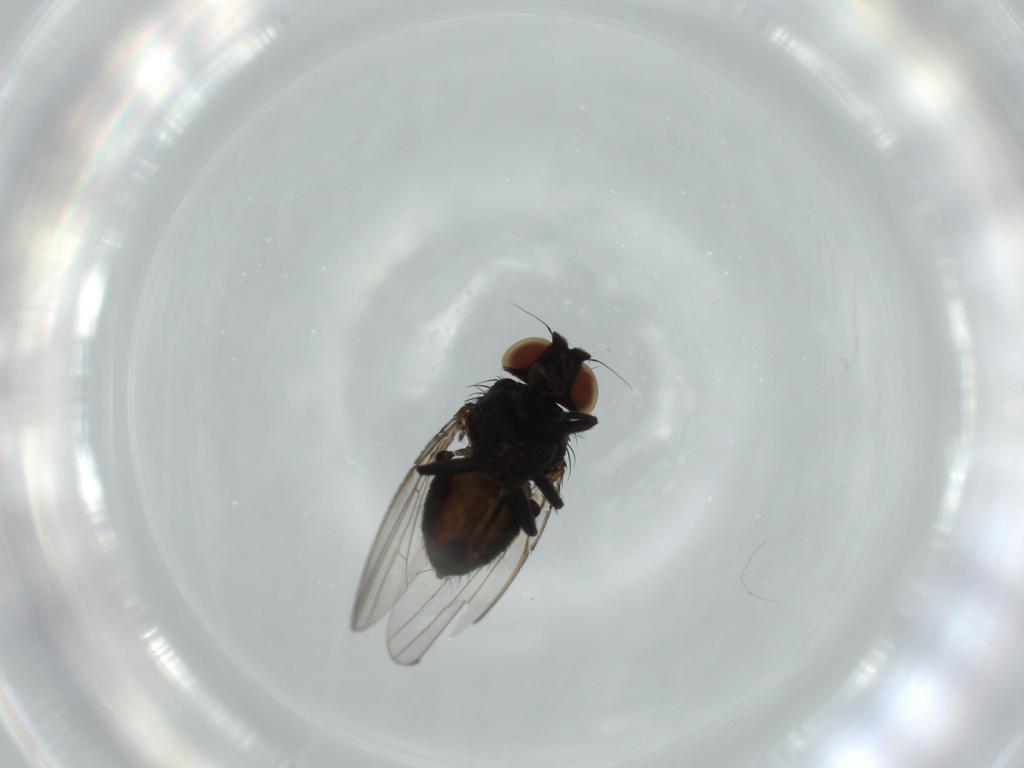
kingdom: Animalia
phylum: Arthropoda
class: Insecta
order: Diptera
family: Milichiidae
